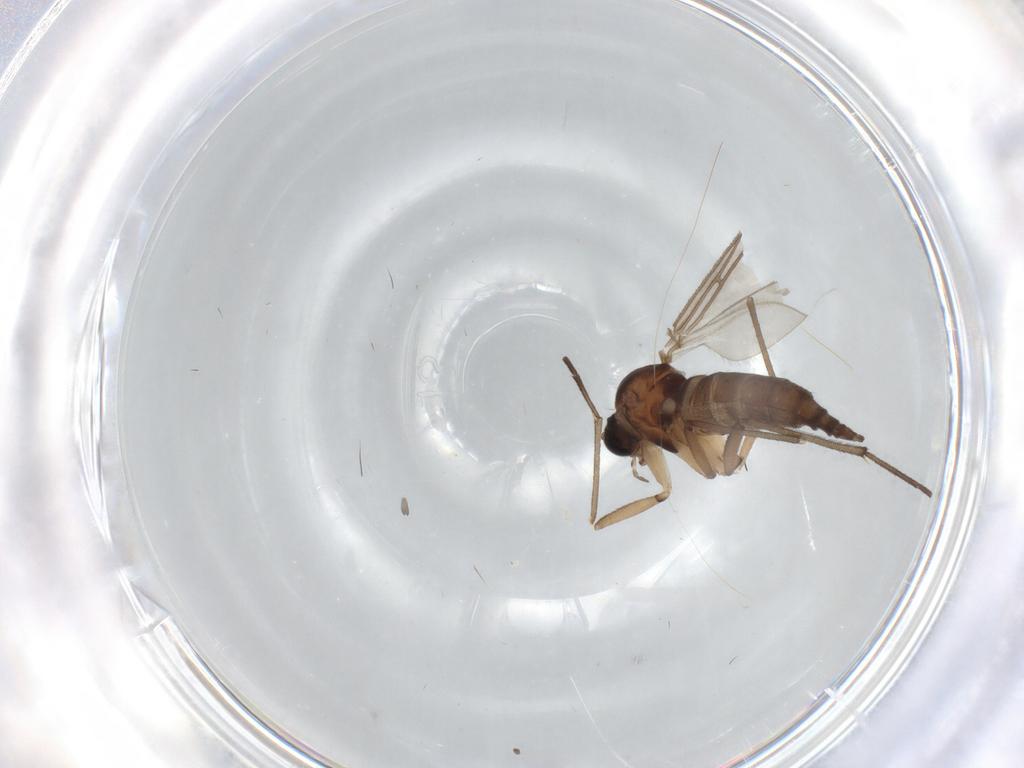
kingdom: Animalia
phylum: Arthropoda
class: Insecta
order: Diptera
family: Sciaridae
